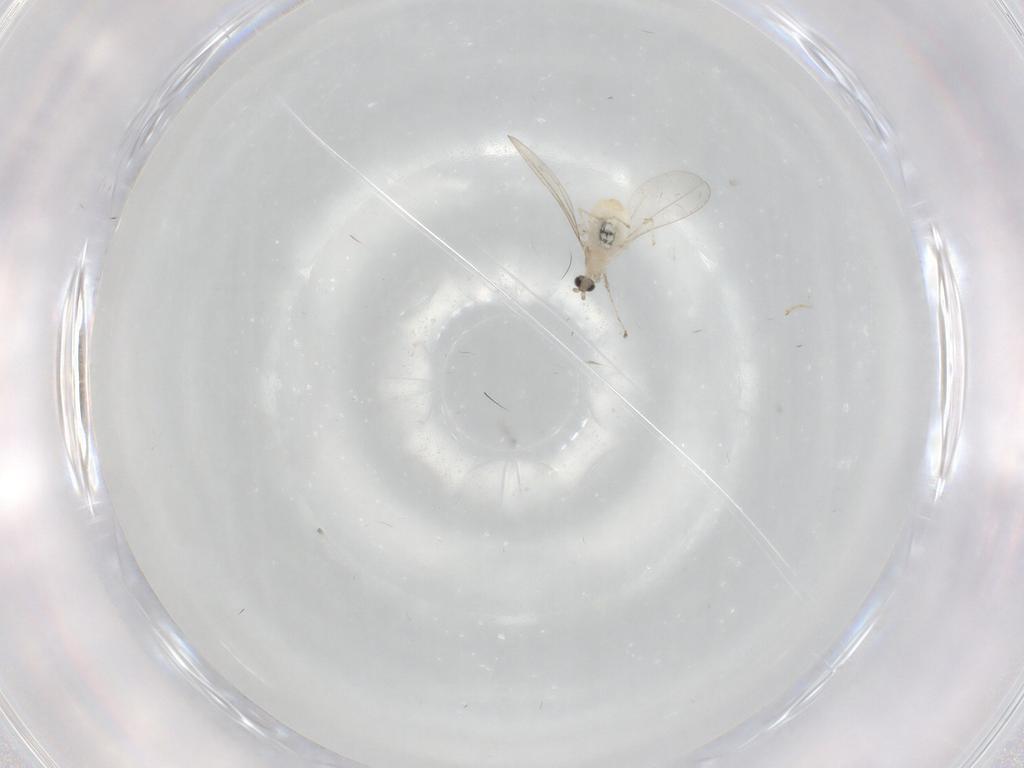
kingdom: Animalia
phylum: Arthropoda
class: Insecta
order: Diptera
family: Cecidomyiidae
